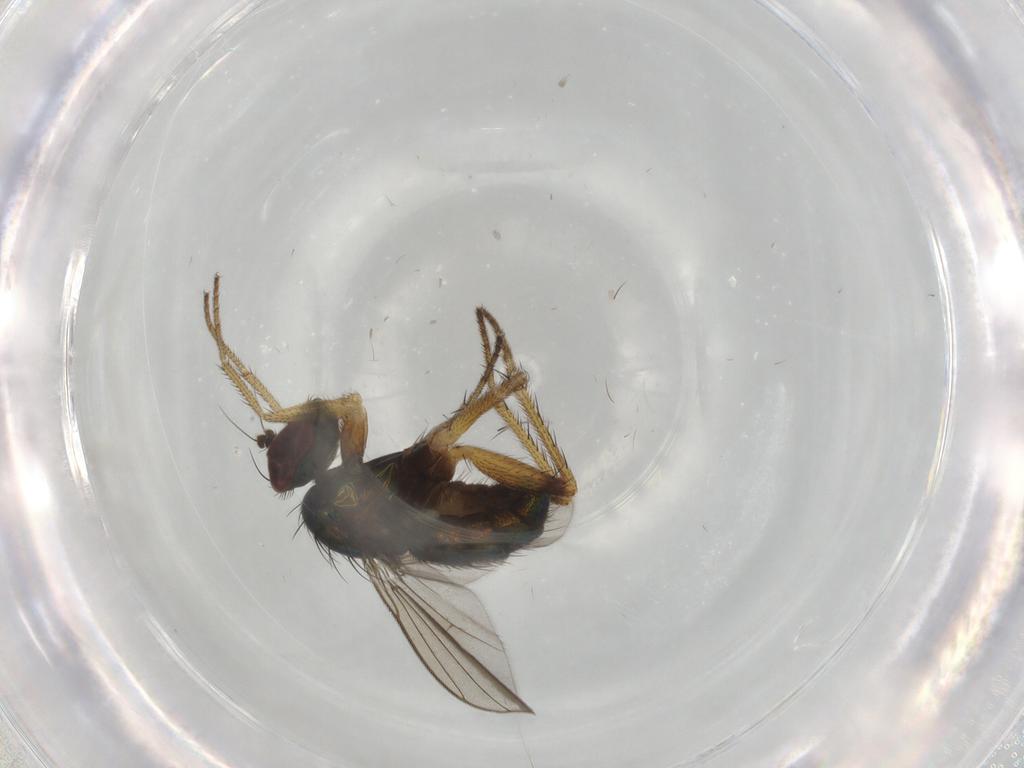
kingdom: Animalia
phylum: Arthropoda
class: Insecta
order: Diptera
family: Dolichopodidae
